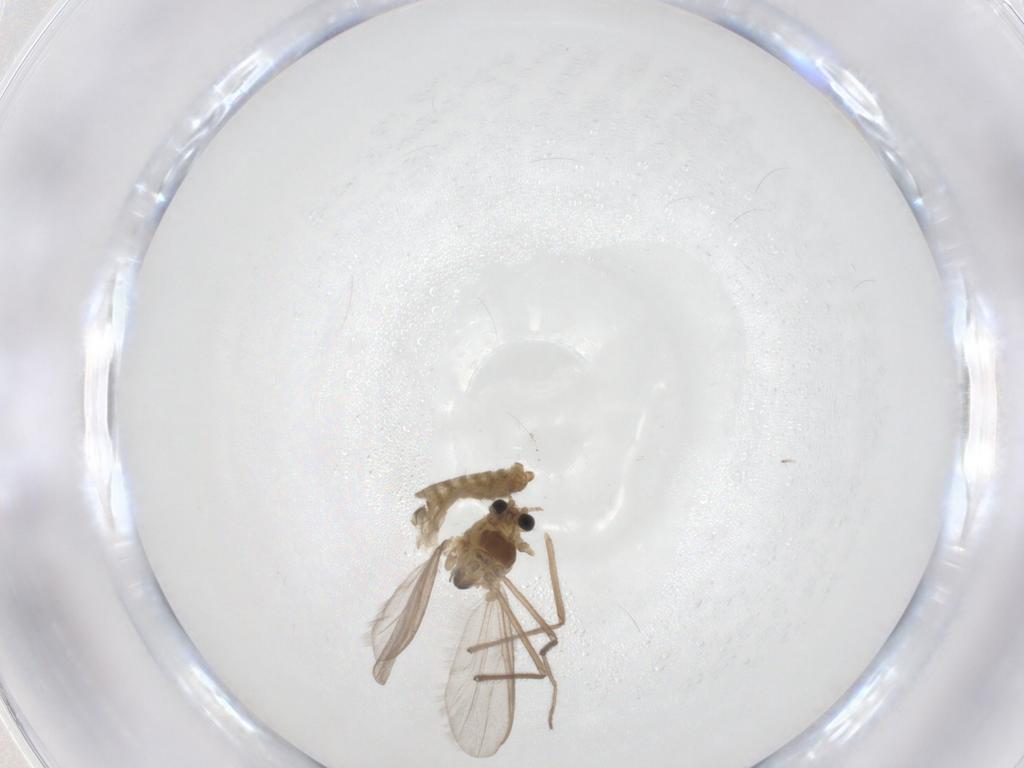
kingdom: Animalia
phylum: Arthropoda
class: Insecta
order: Diptera
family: Chironomidae
